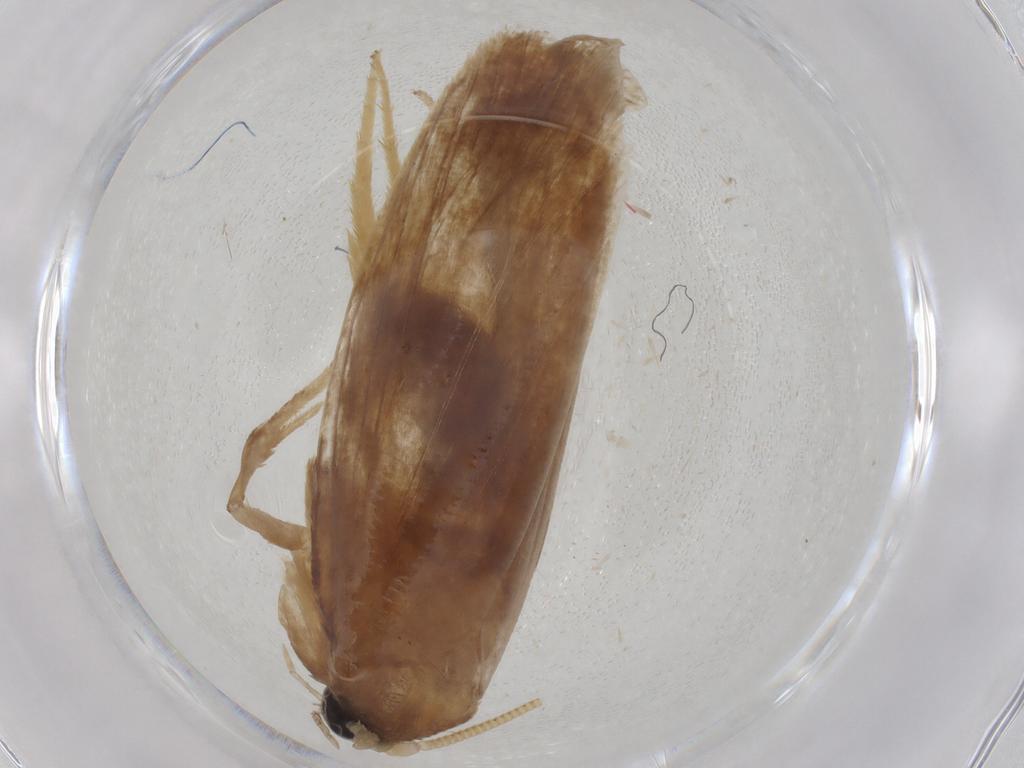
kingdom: Animalia
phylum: Arthropoda
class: Insecta
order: Lepidoptera
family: Tineidae
